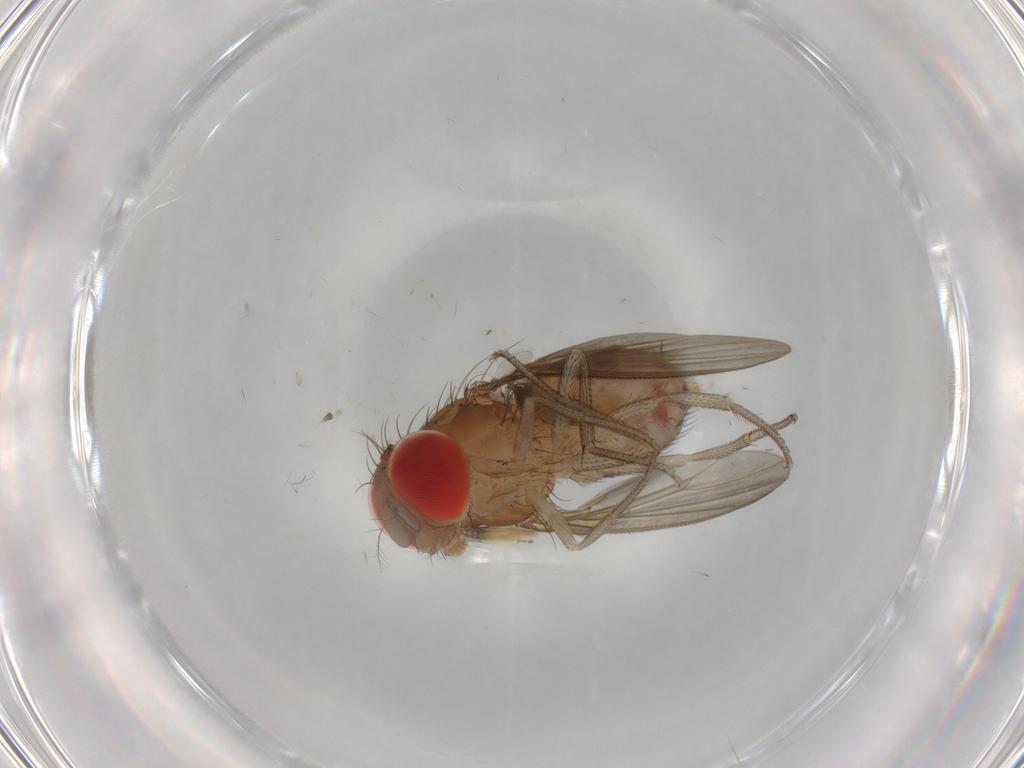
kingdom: Animalia
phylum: Arthropoda
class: Insecta
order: Diptera
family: Drosophilidae
